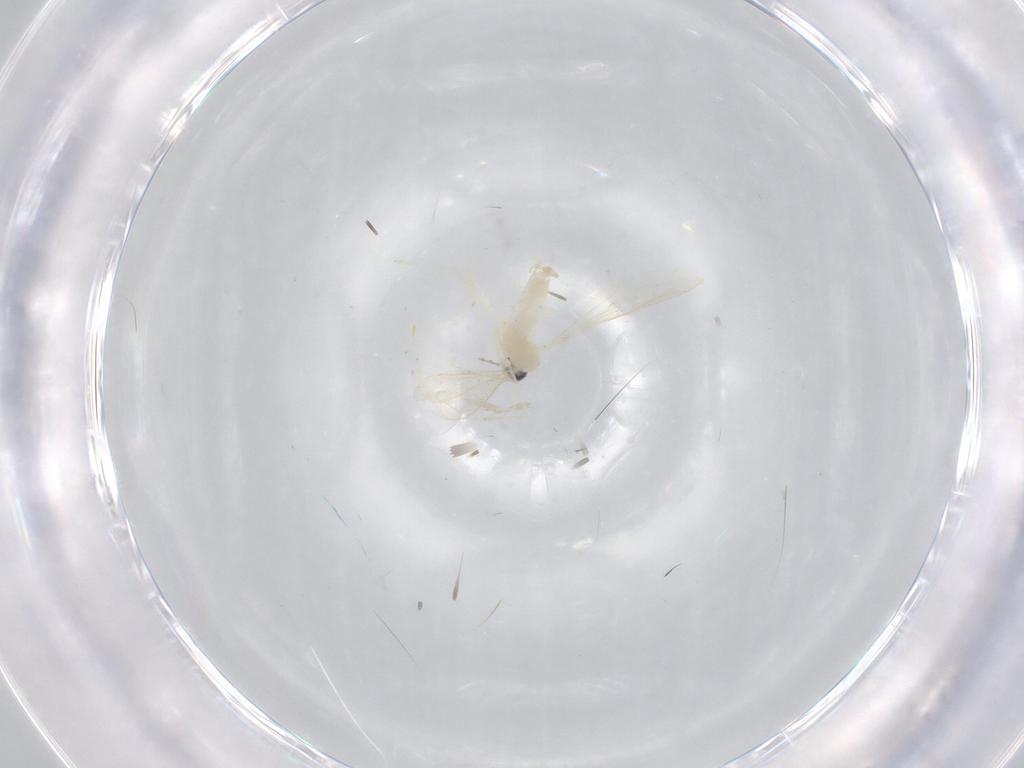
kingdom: Animalia
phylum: Arthropoda
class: Insecta
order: Diptera
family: Cecidomyiidae
